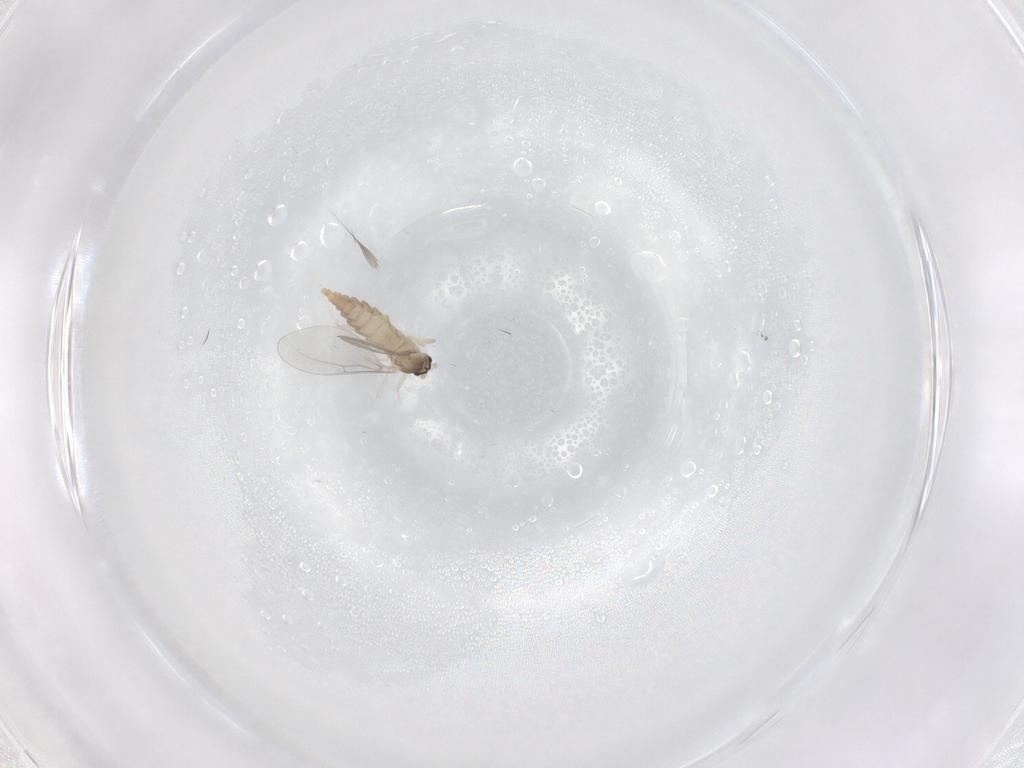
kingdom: Animalia
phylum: Arthropoda
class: Insecta
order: Diptera
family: Cecidomyiidae
